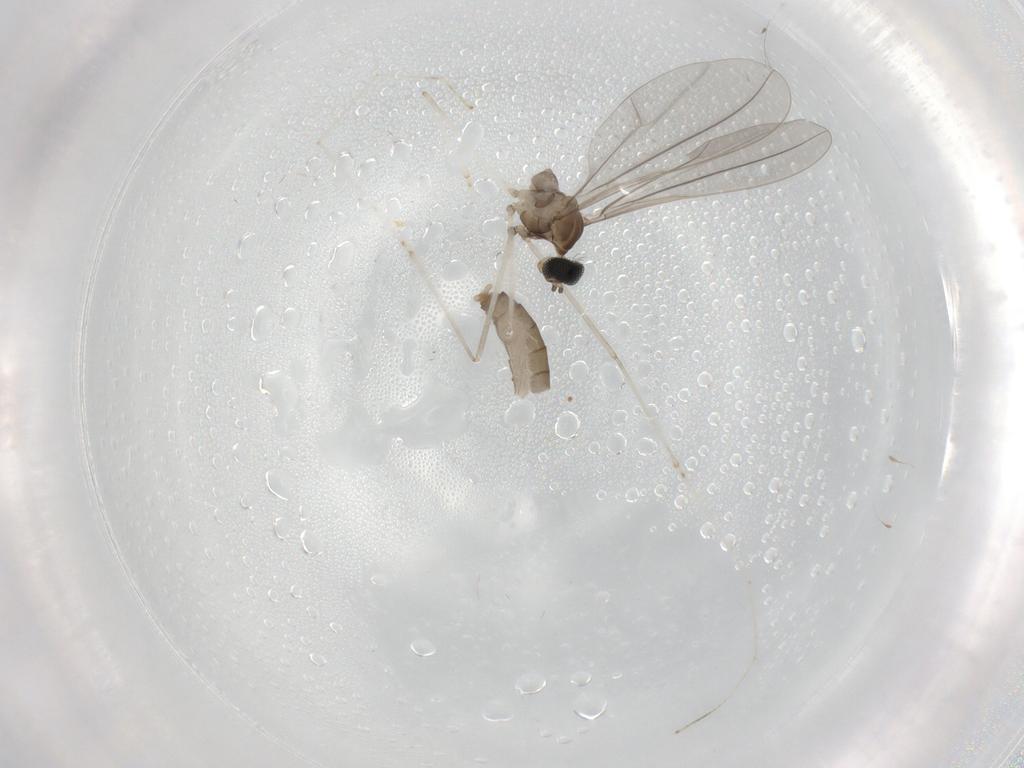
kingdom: Animalia
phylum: Arthropoda
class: Insecta
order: Diptera
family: Cecidomyiidae
